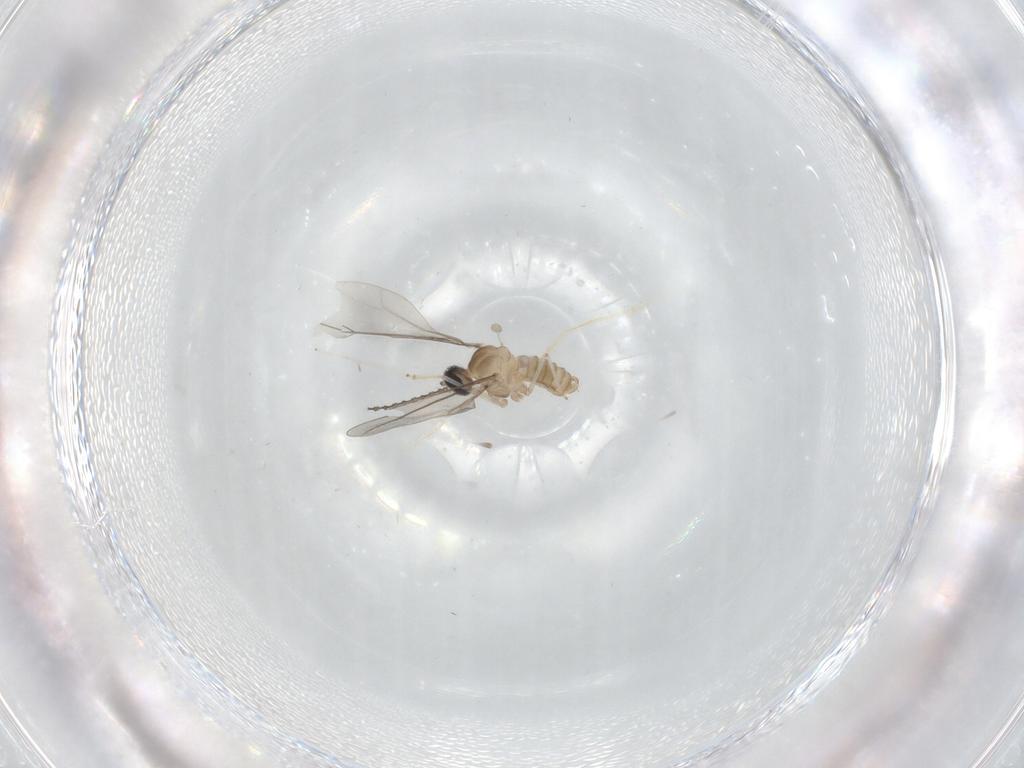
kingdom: Animalia
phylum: Arthropoda
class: Insecta
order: Diptera
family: Cecidomyiidae
